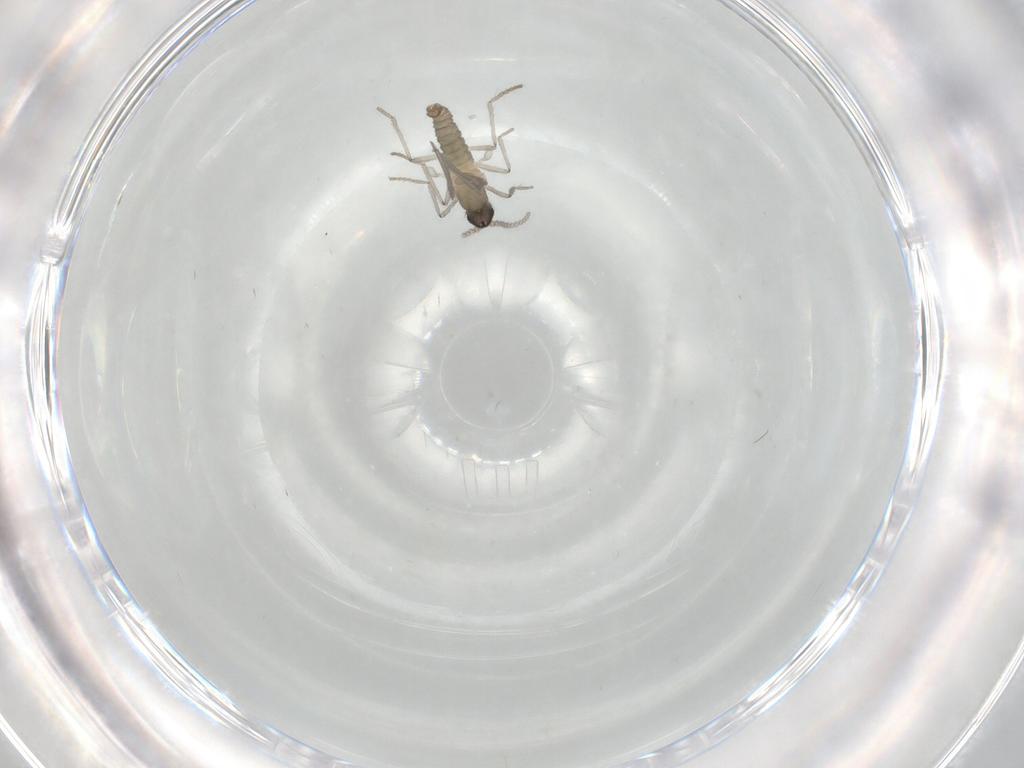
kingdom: Animalia
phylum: Arthropoda
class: Insecta
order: Diptera
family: Cecidomyiidae
